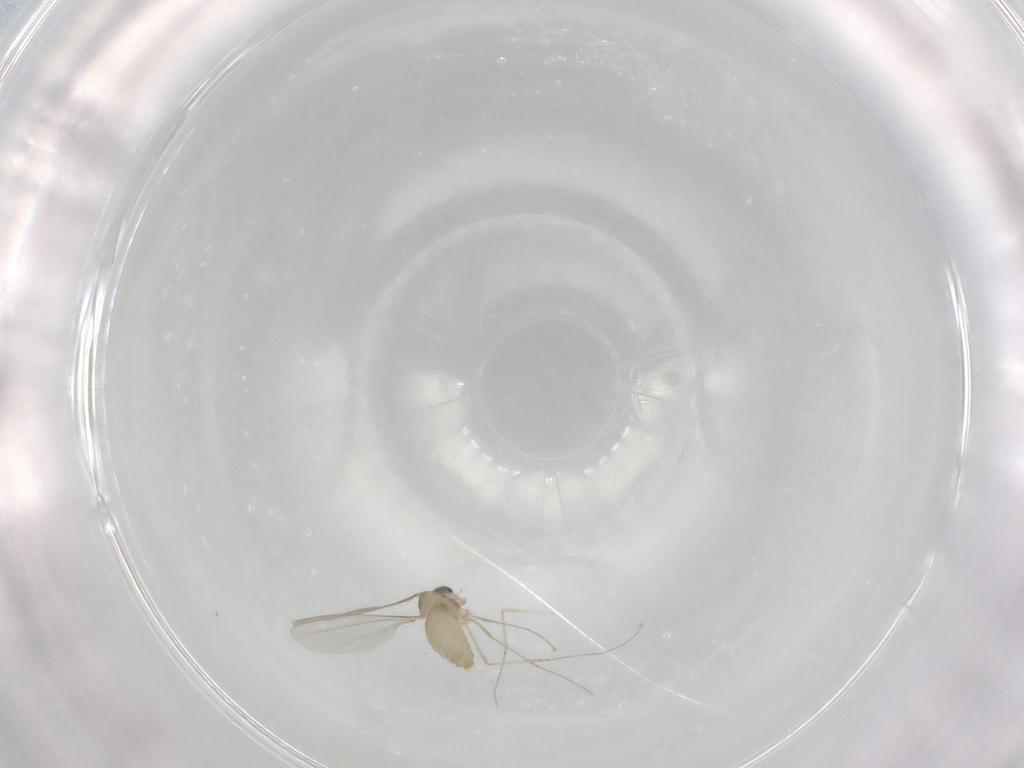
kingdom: Animalia
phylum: Arthropoda
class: Insecta
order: Diptera
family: Cecidomyiidae
